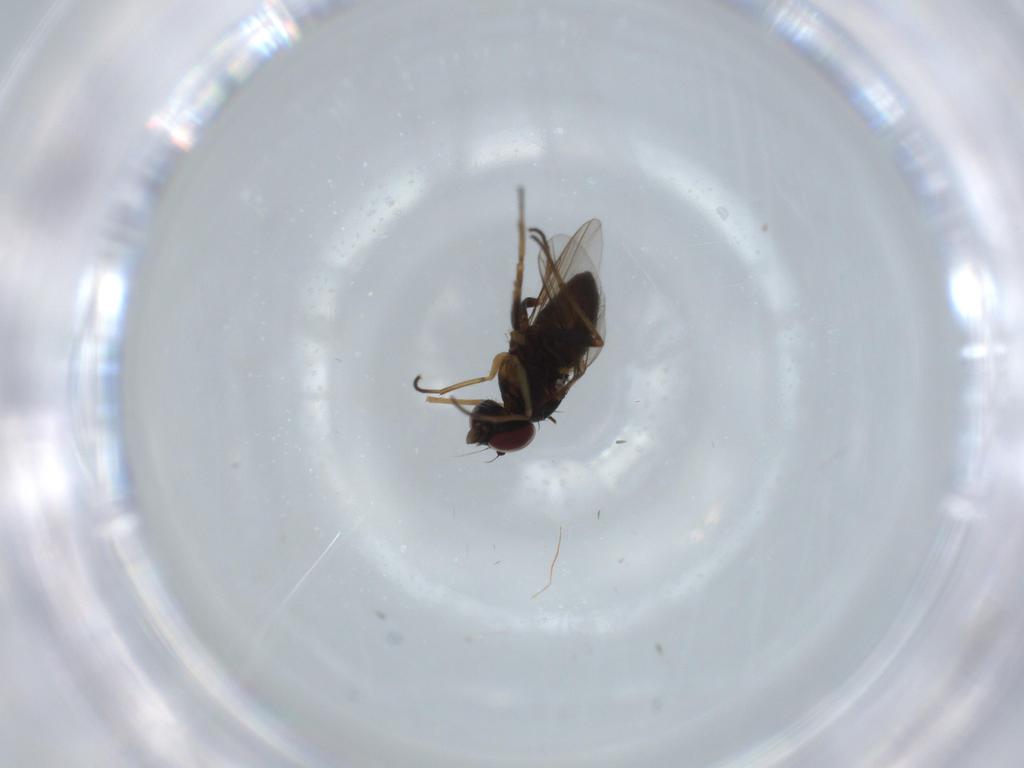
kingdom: Animalia
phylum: Arthropoda
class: Insecta
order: Diptera
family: Dolichopodidae
